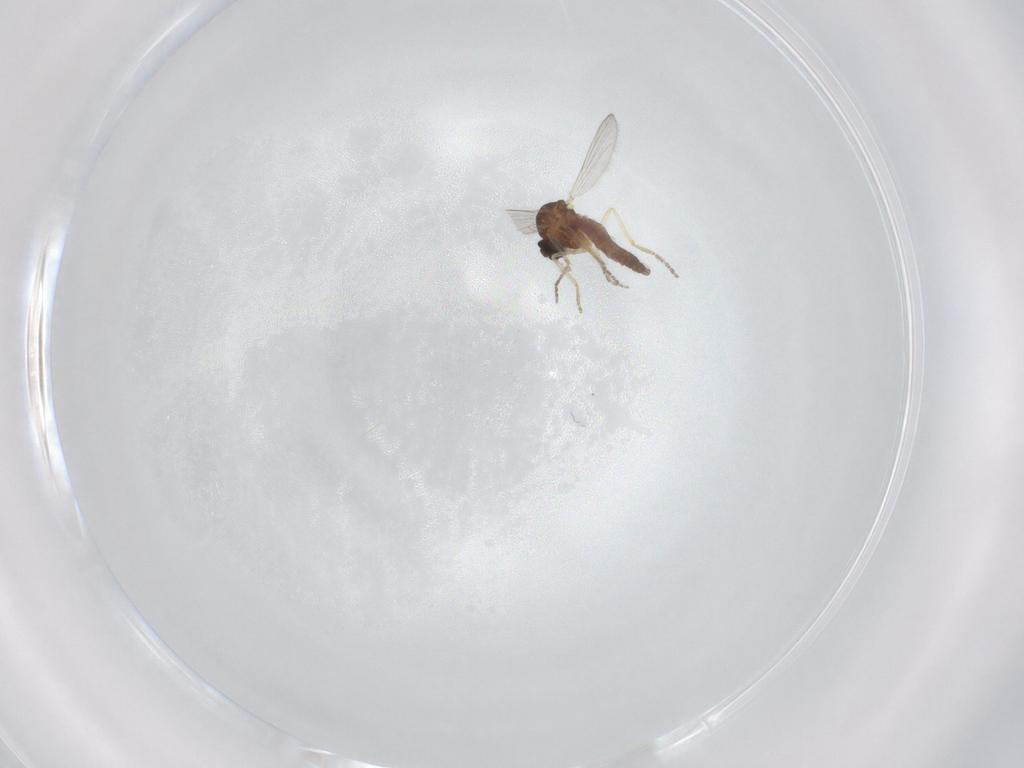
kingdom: Animalia
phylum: Arthropoda
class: Insecta
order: Diptera
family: Ceratopogonidae
